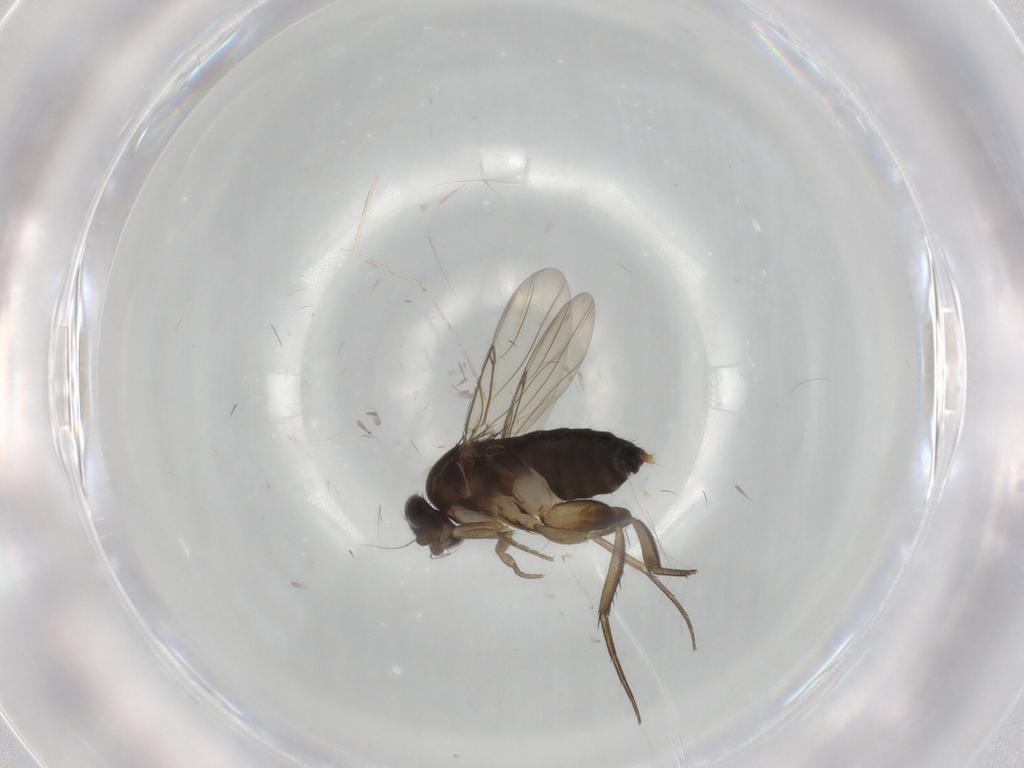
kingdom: Animalia
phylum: Arthropoda
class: Insecta
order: Diptera
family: Phoridae
